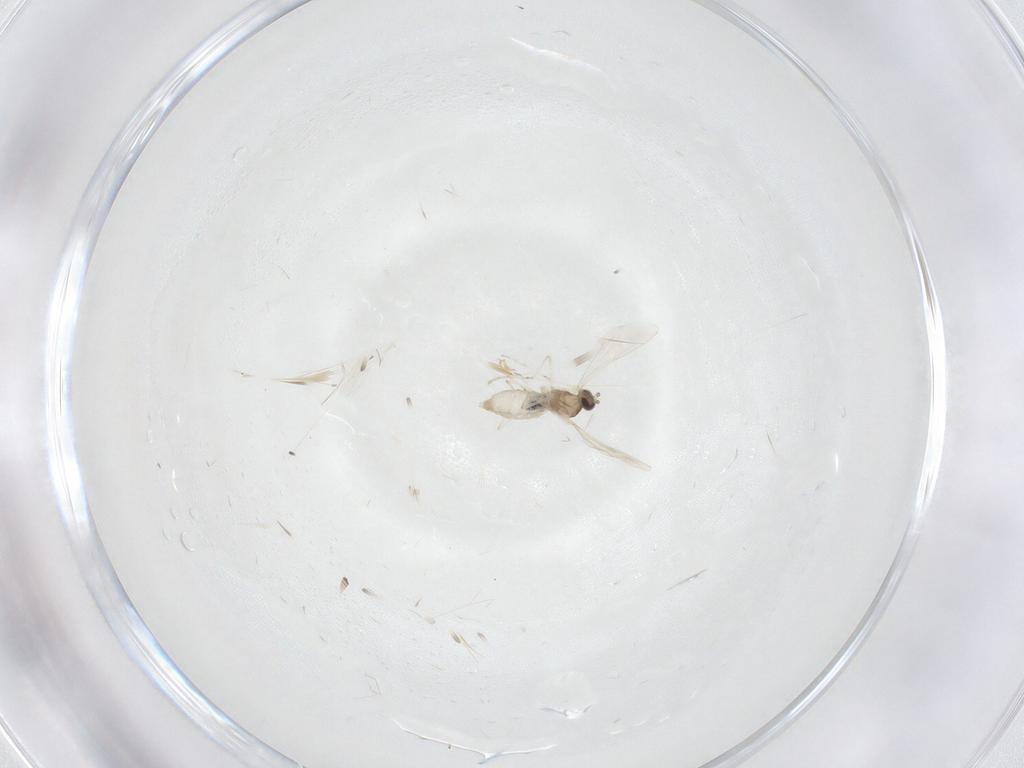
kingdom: Animalia
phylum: Arthropoda
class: Insecta
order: Diptera
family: Cecidomyiidae
